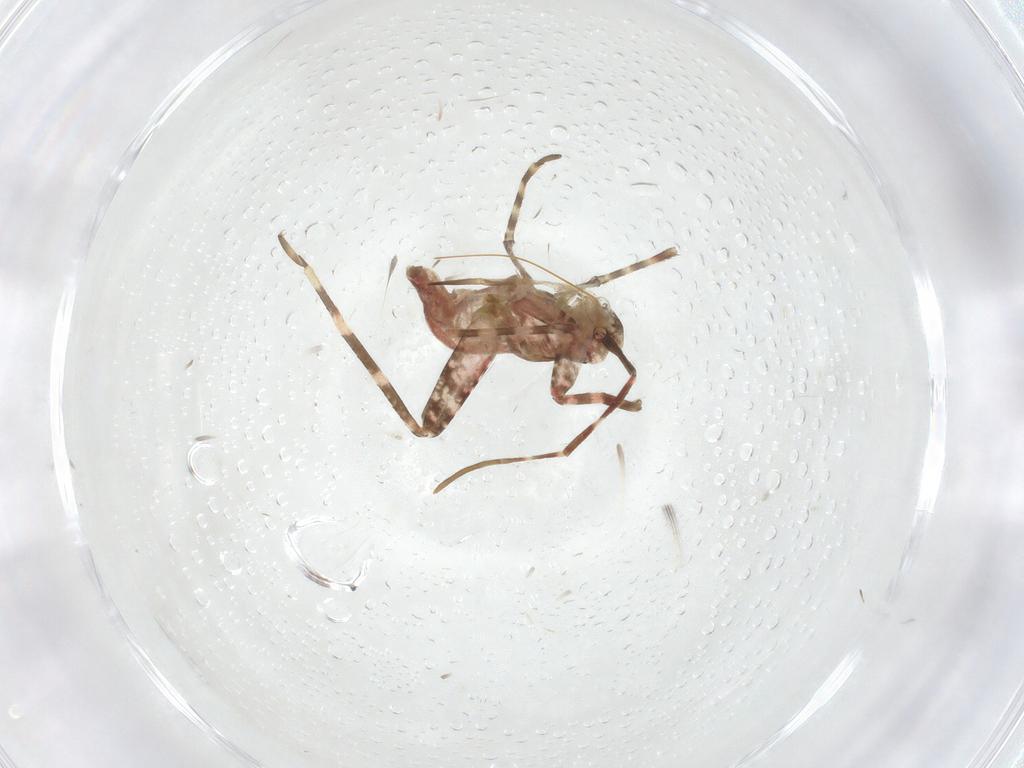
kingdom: Animalia
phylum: Arthropoda
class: Insecta
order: Hemiptera
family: Miridae
